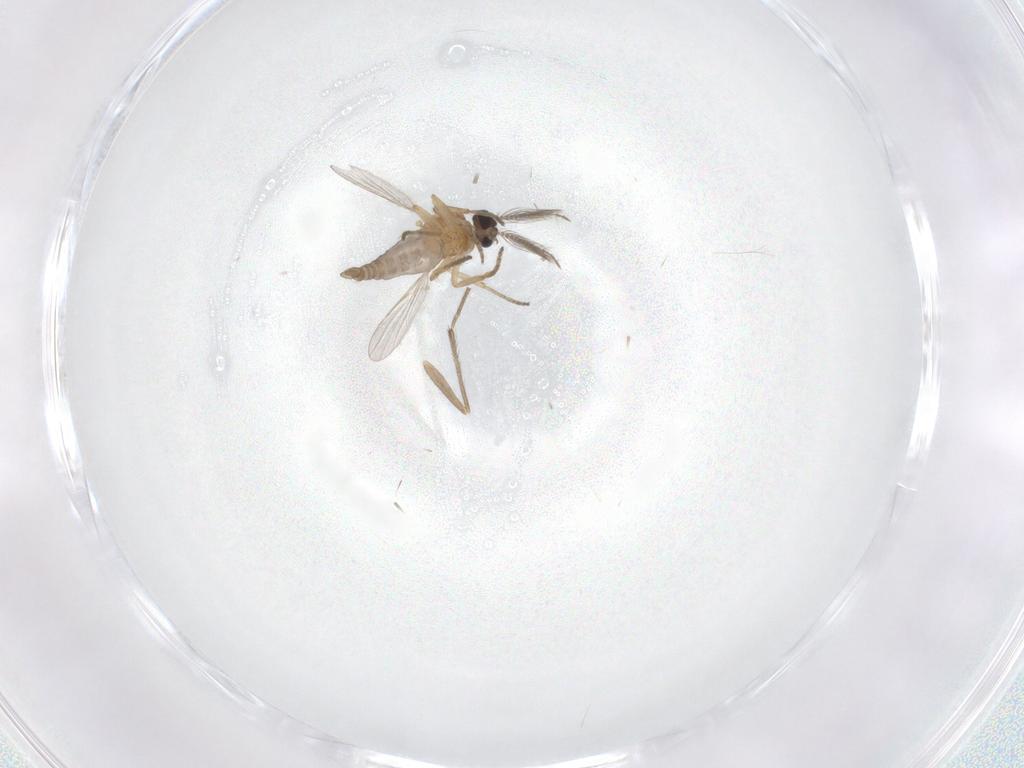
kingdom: Animalia
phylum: Arthropoda
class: Insecta
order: Diptera
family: Ceratopogonidae
